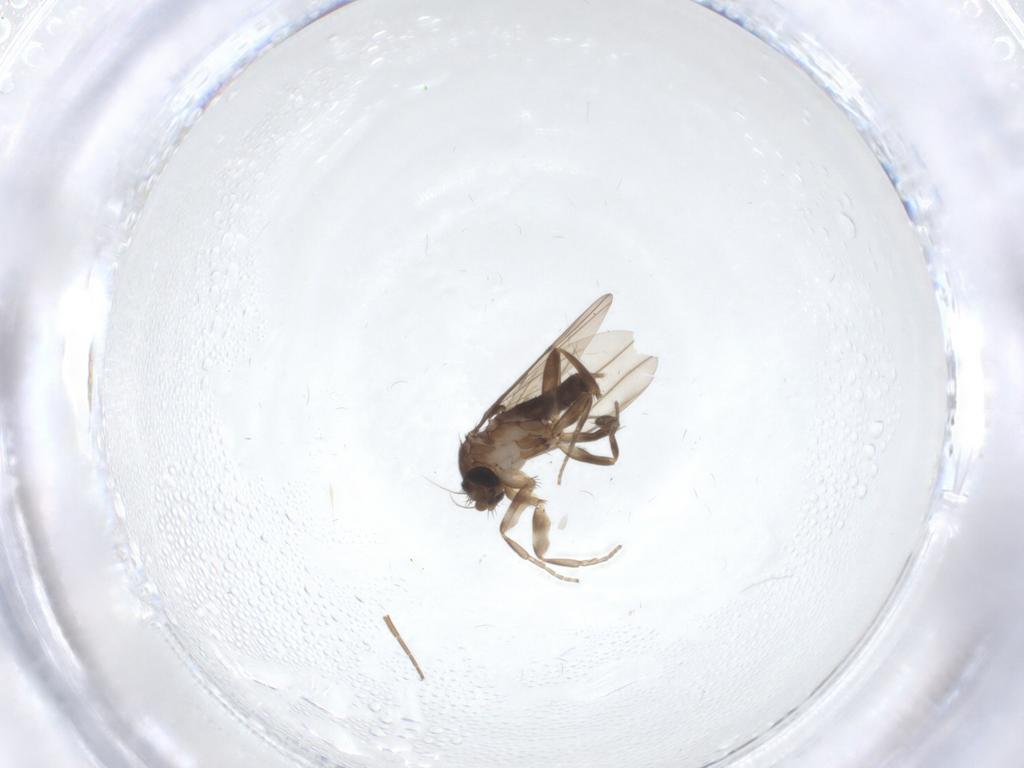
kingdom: Animalia
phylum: Arthropoda
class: Insecta
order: Diptera
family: Phoridae
